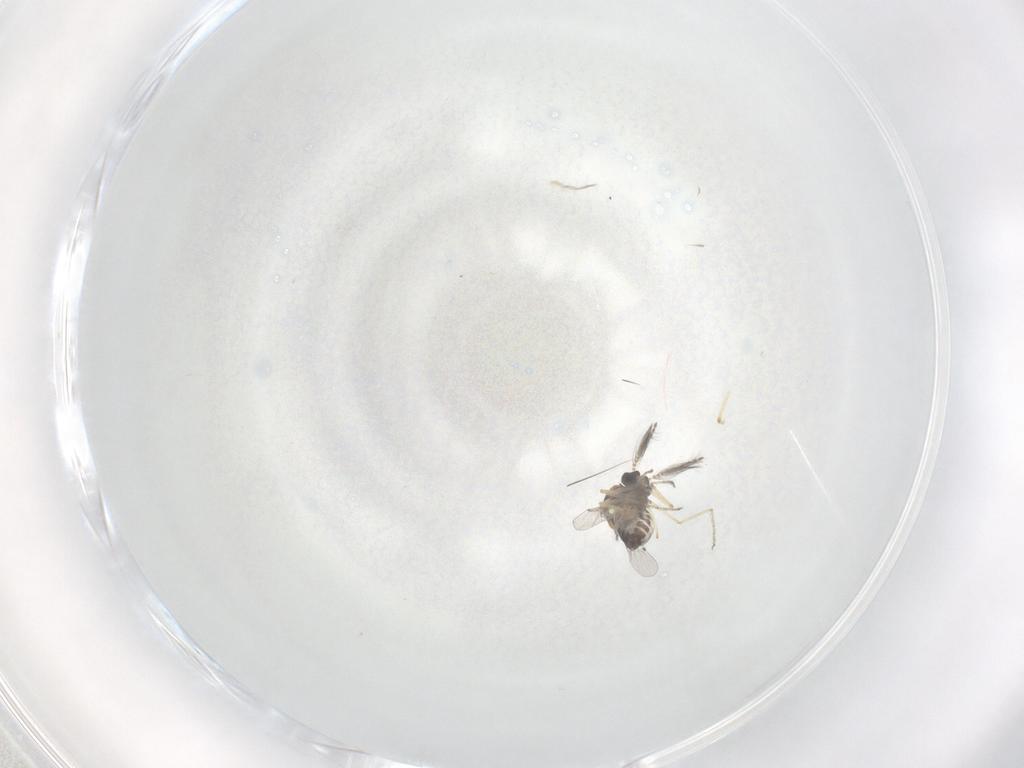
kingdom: Animalia
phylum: Arthropoda
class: Insecta
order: Diptera
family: Ceratopogonidae
